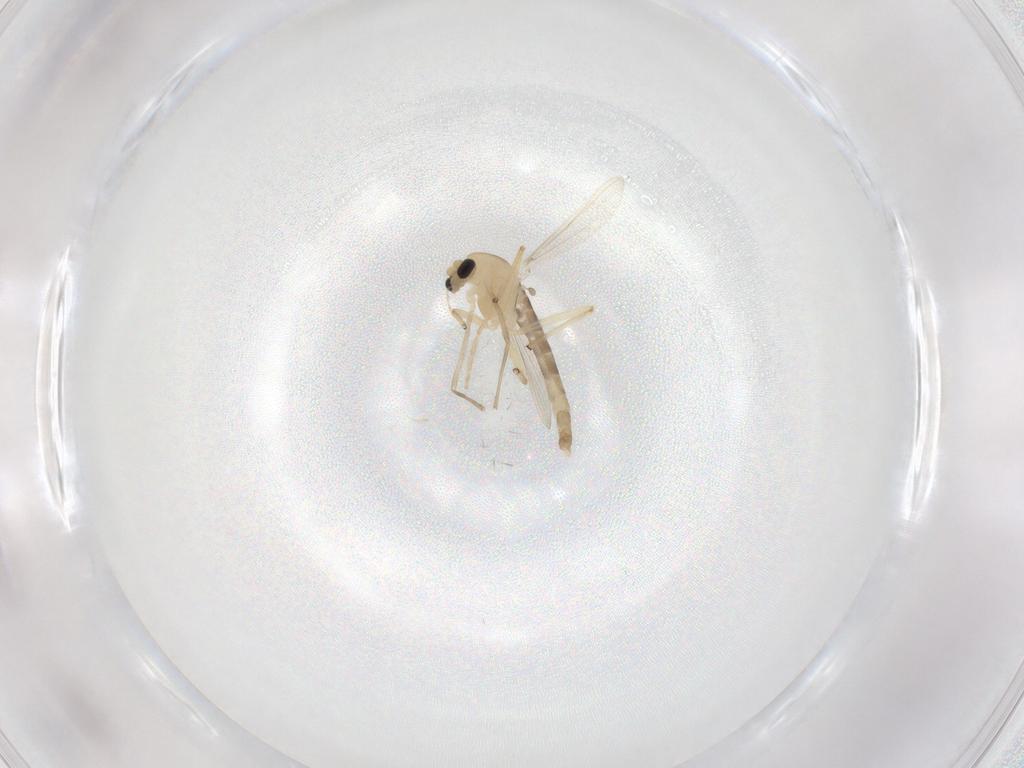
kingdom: Animalia
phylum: Arthropoda
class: Insecta
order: Diptera
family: Chironomidae
